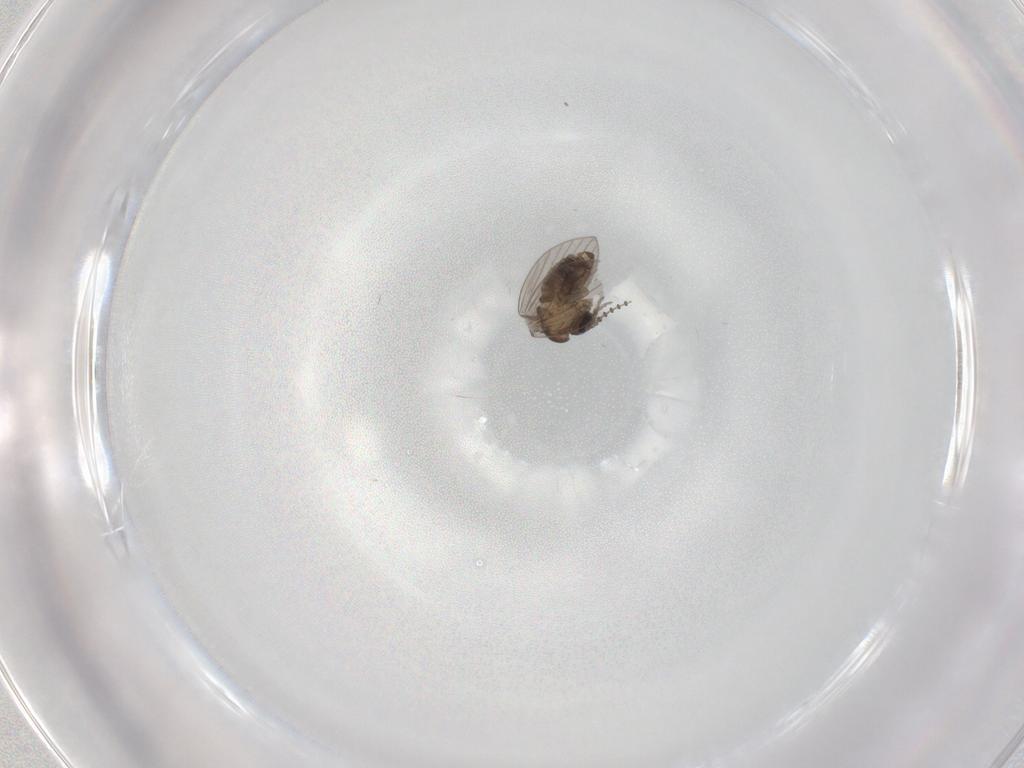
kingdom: Animalia
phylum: Arthropoda
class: Insecta
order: Diptera
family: Psychodidae
